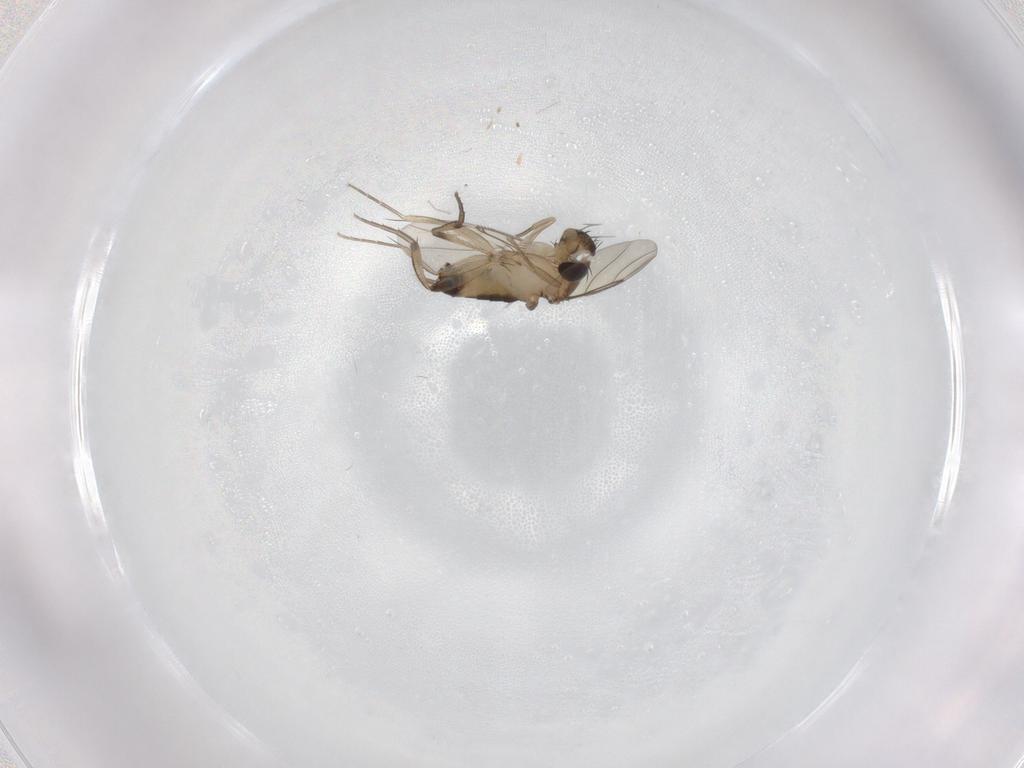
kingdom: Animalia
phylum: Arthropoda
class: Insecta
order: Diptera
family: Phoridae
